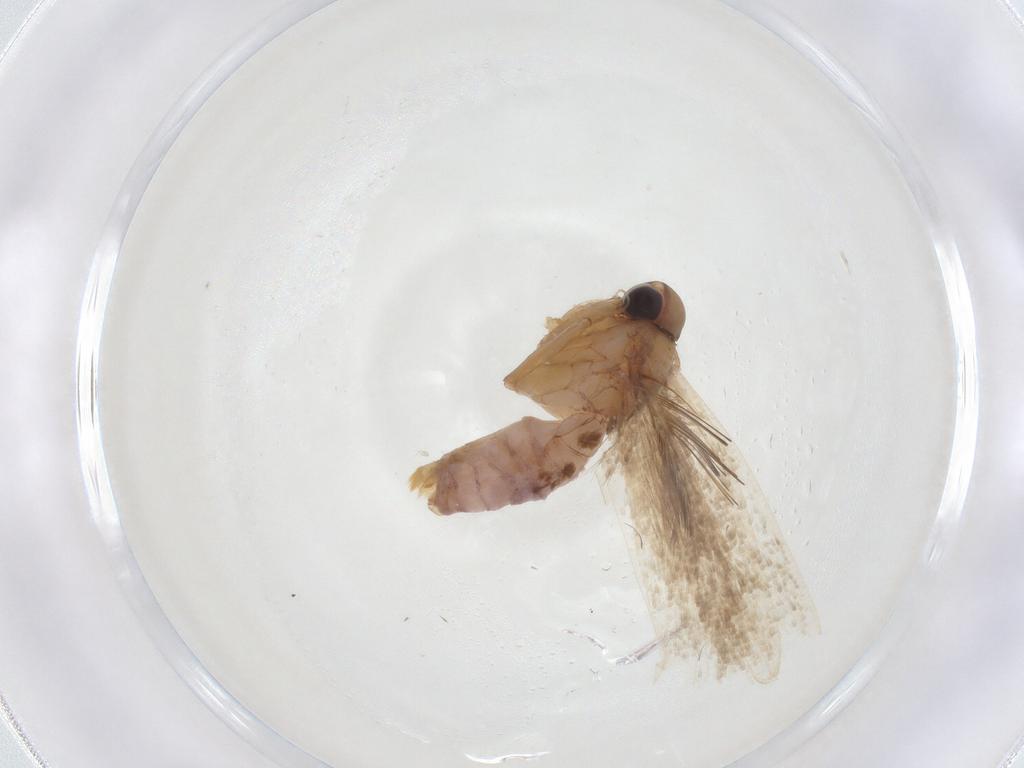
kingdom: Animalia
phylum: Arthropoda
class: Insecta
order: Lepidoptera
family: Gelechiidae
